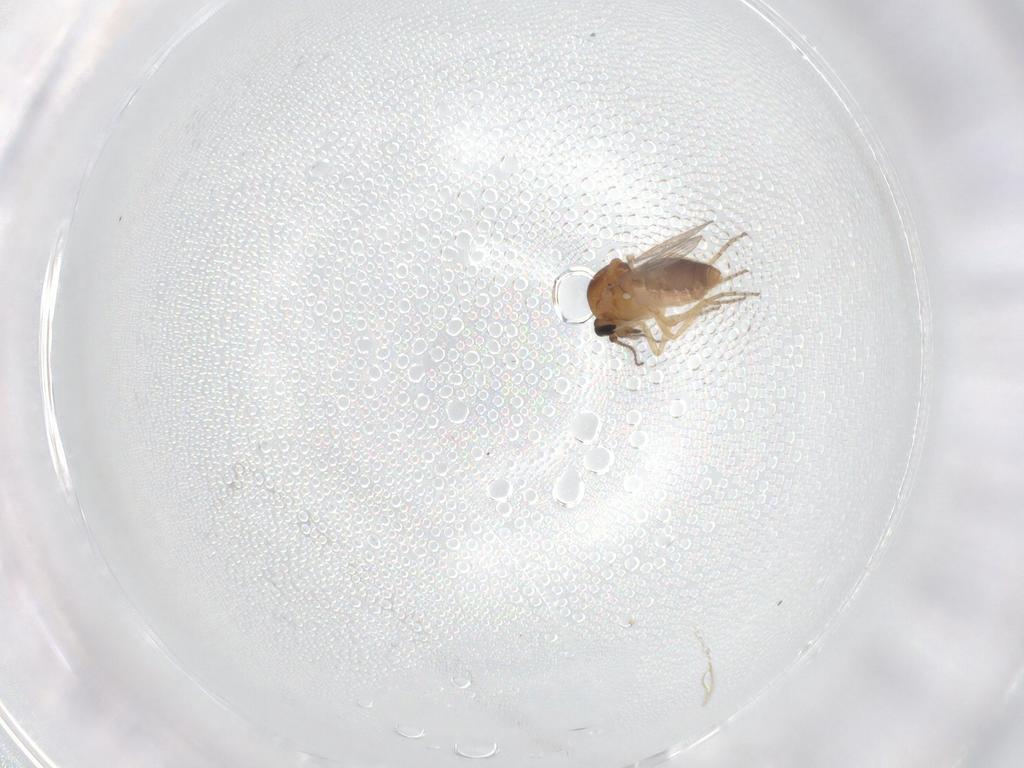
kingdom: Animalia
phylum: Arthropoda
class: Insecta
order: Diptera
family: Ceratopogonidae
